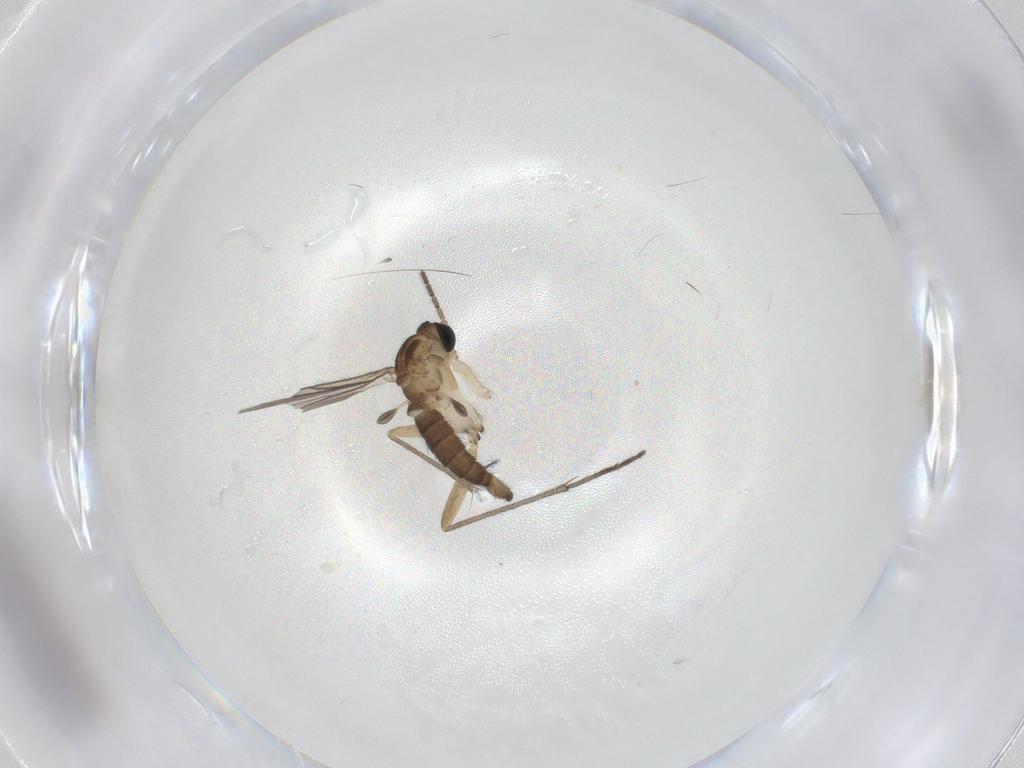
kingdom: Animalia
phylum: Arthropoda
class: Insecta
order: Diptera
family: Sciaridae
